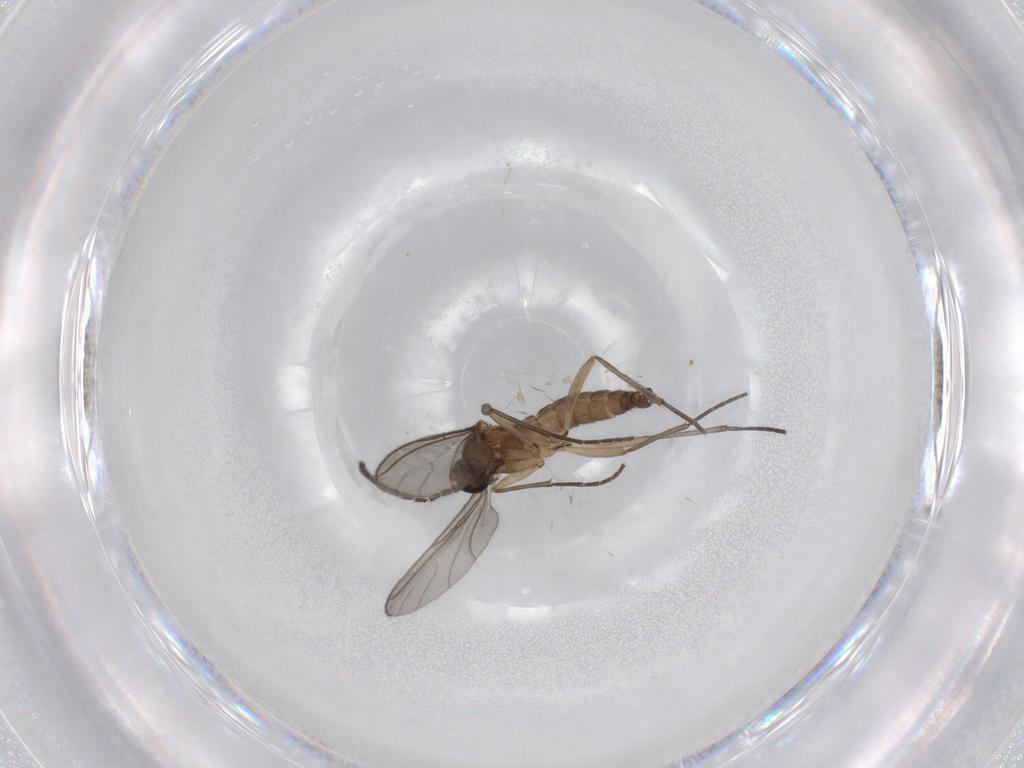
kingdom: Animalia
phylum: Arthropoda
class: Insecta
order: Diptera
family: Sciaridae
